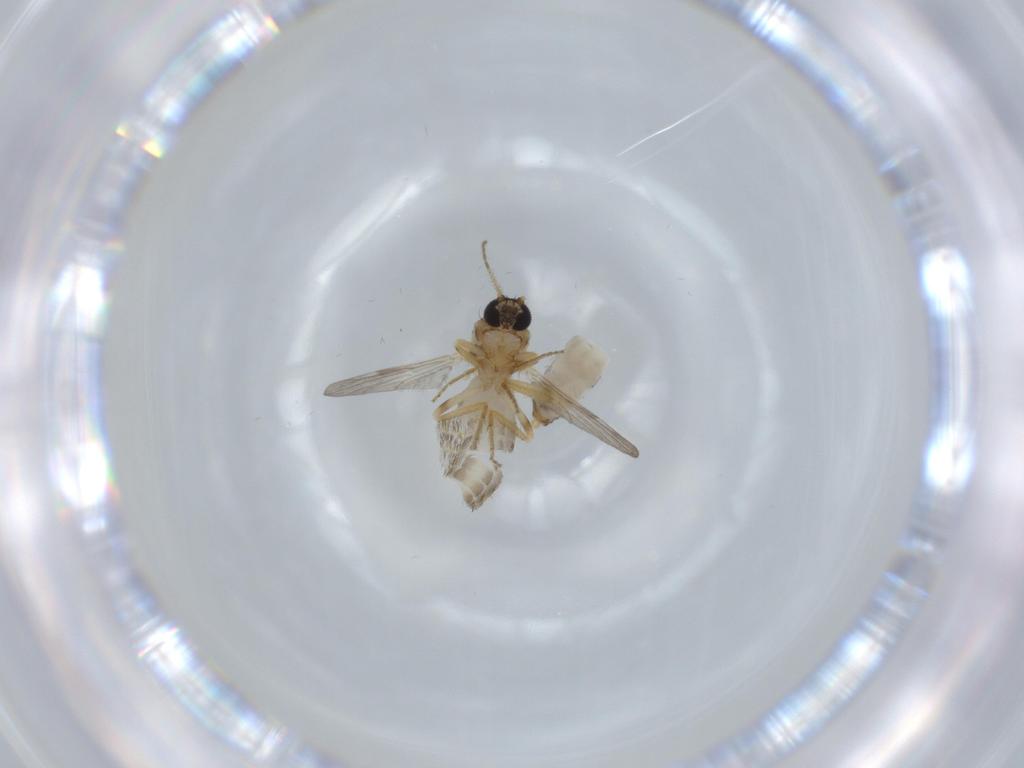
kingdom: Animalia
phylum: Arthropoda
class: Insecta
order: Diptera
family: Ceratopogonidae
